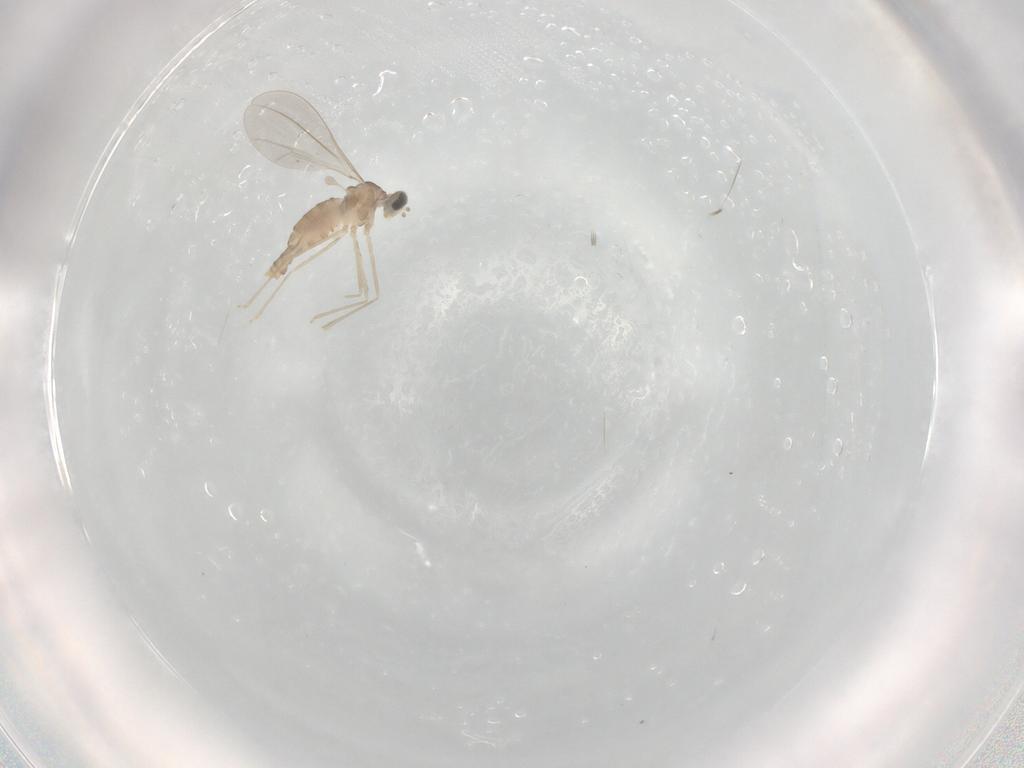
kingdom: Animalia
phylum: Arthropoda
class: Insecta
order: Diptera
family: Cecidomyiidae
